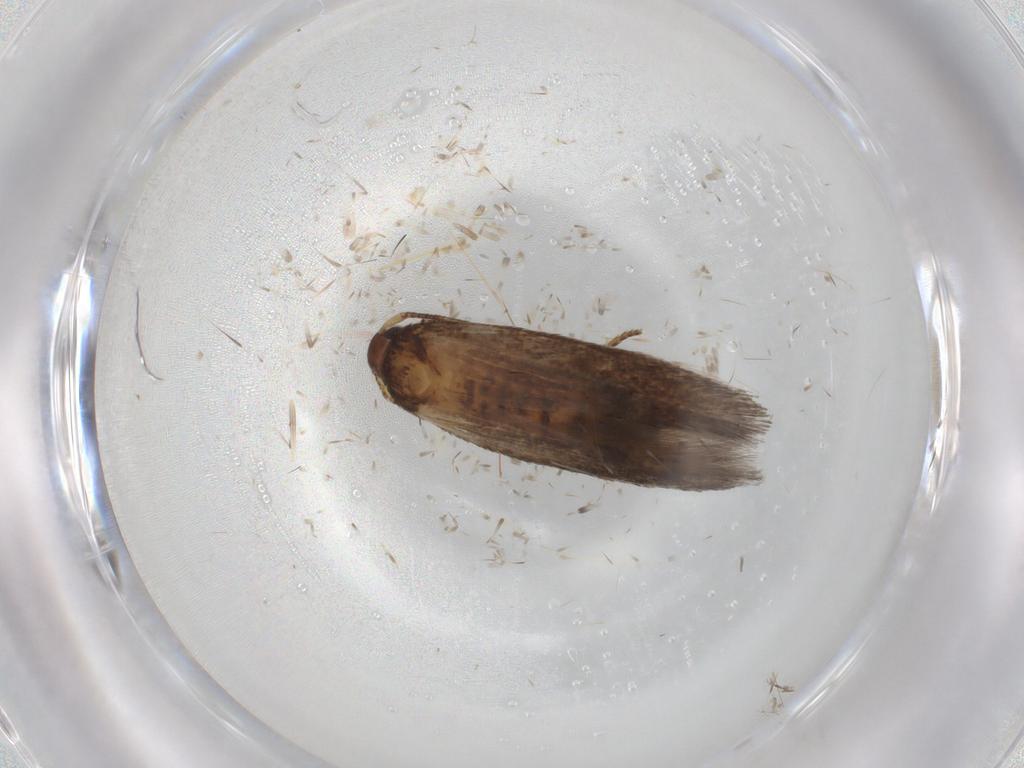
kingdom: Animalia
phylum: Arthropoda
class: Insecta
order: Lepidoptera
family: Cosmopterigidae
